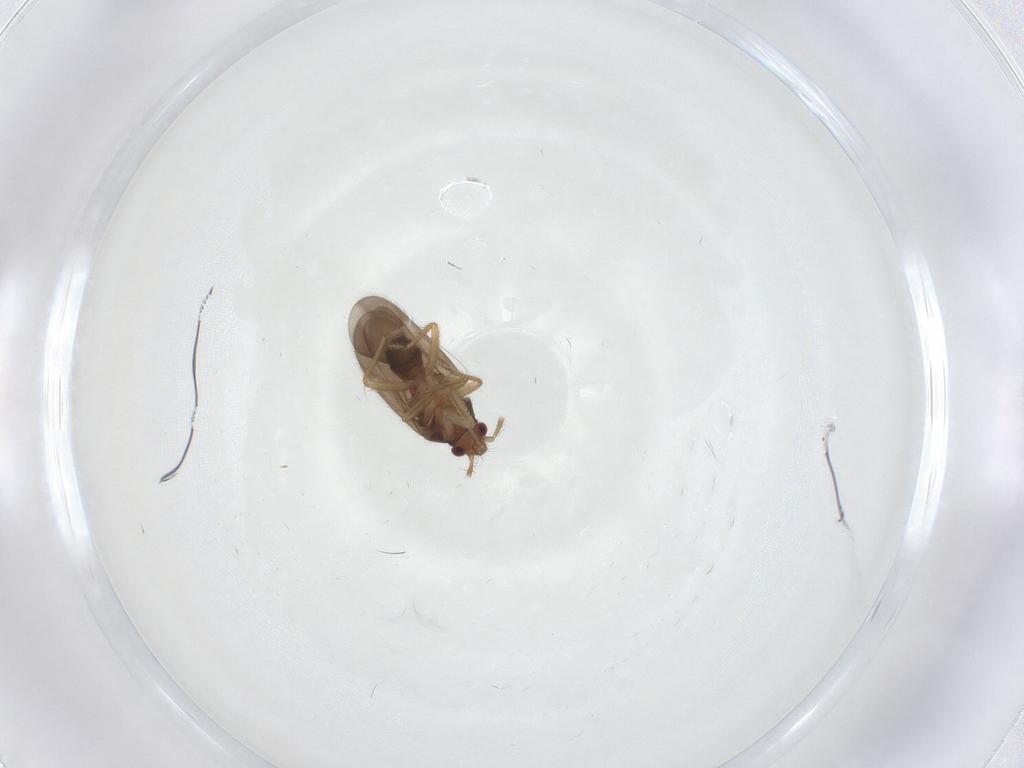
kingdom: Animalia
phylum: Arthropoda
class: Insecta
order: Hemiptera
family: Ceratocombidae
